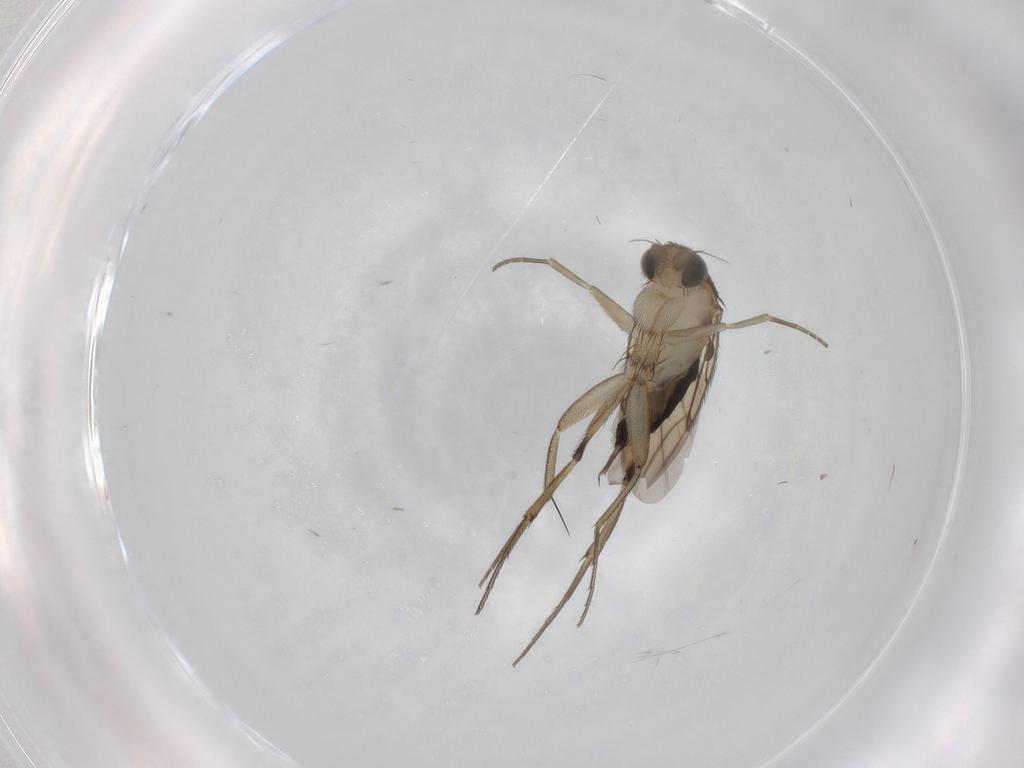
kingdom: Animalia
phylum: Arthropoda
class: Insecta
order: Diptera
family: Phoridae
